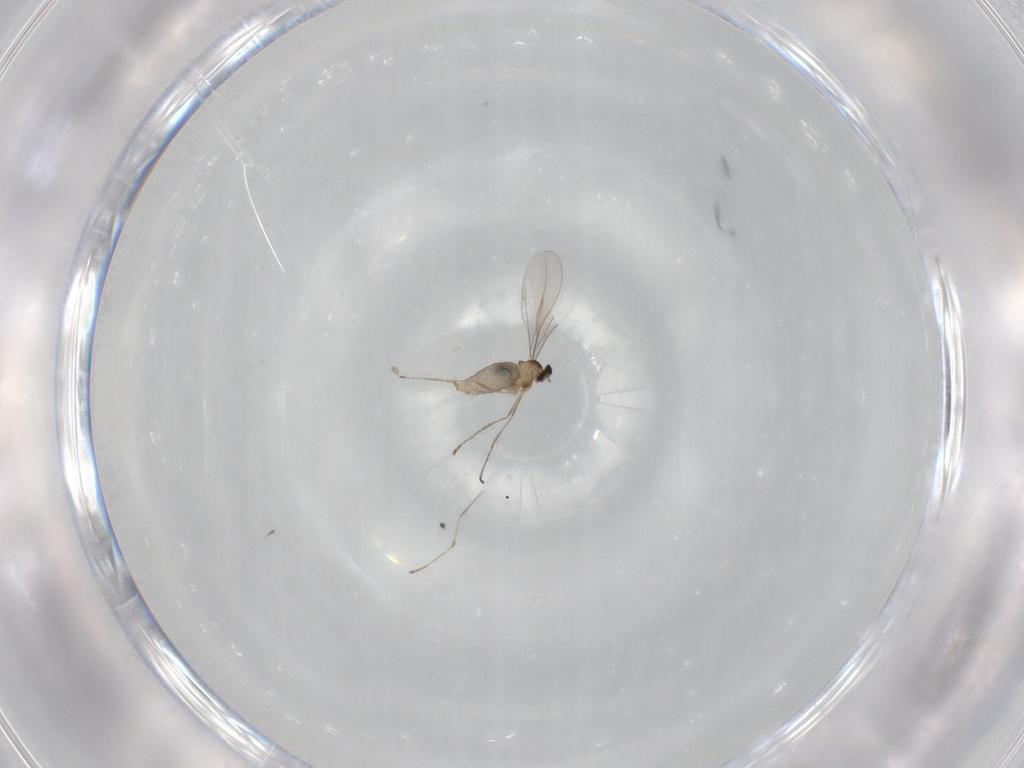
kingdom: Animalia
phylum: Arthropoda
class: Insecta
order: Diptera
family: Cecidomyiidae
